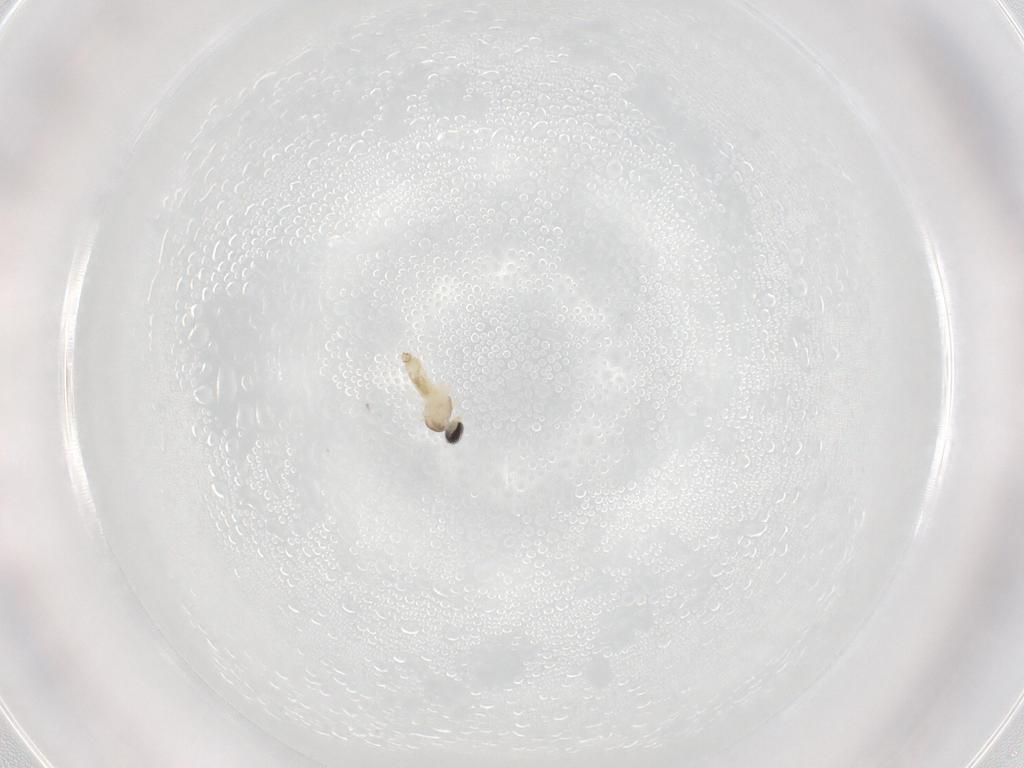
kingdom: Animalia
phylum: Arthropoda
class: Insecta
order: Diptera
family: Cecidomyiidae
